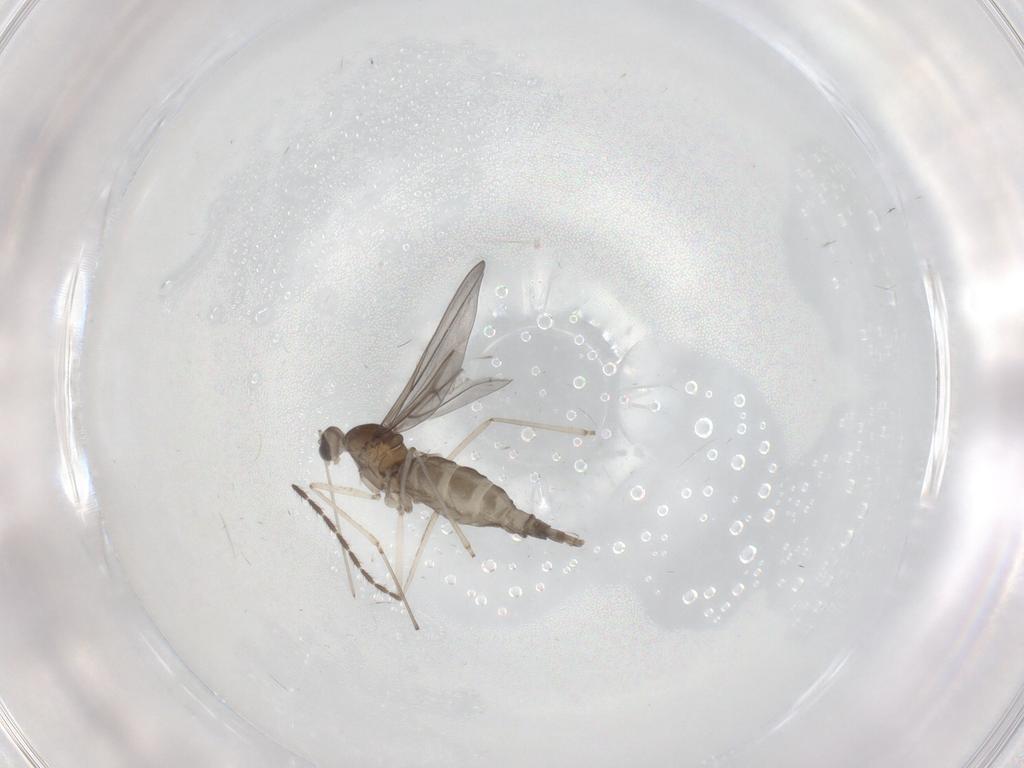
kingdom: Animalia
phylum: Arthropoda
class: Insecta
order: Diptera
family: Cecidomyiidae
